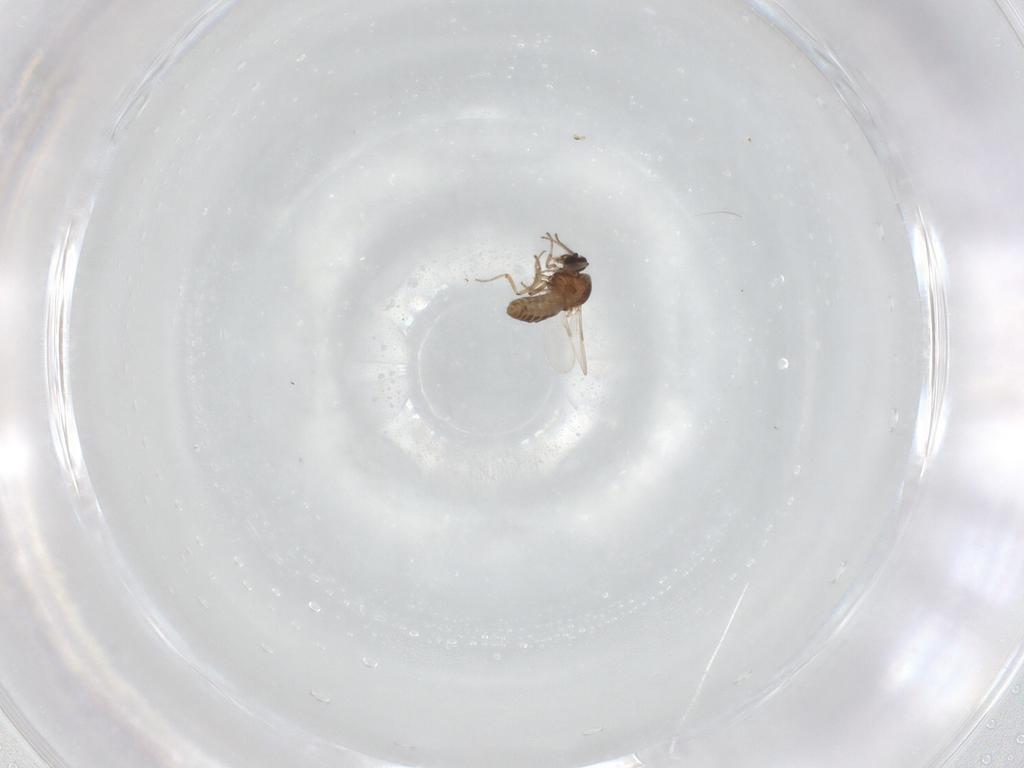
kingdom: Animalia
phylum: Arthropoda
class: Insecta
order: Diptera
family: Ceratopogonidae
